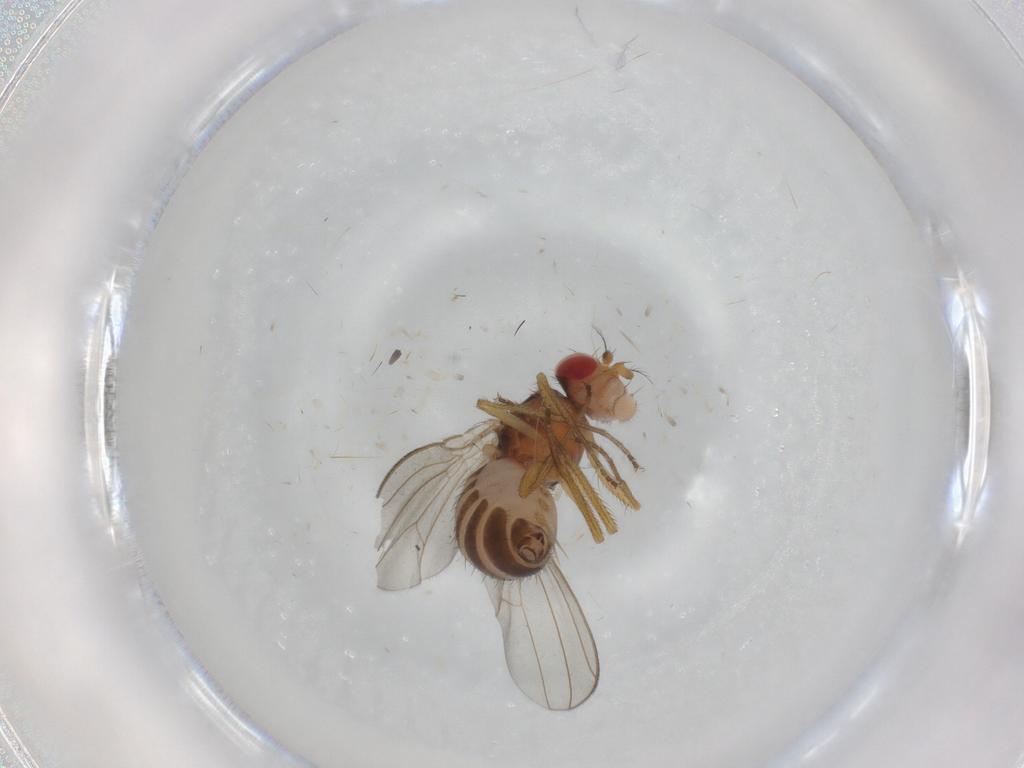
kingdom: Animalia
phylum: Arthropoda
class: Insecta
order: Diptera
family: Drosophilidae
